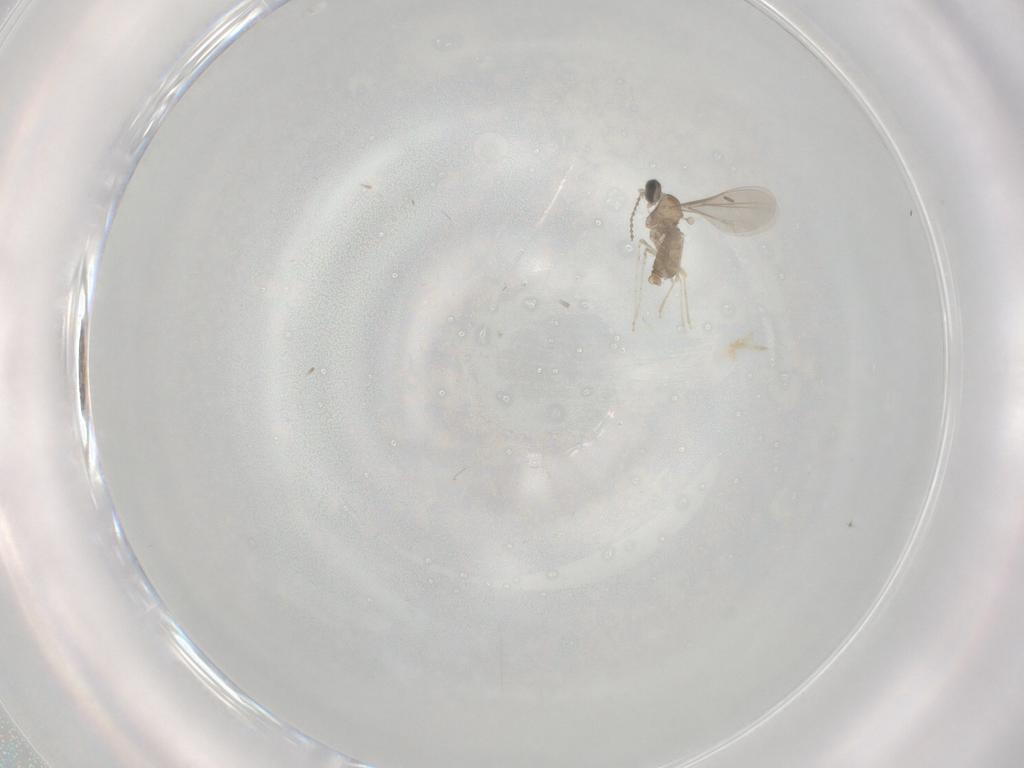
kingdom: Animalia
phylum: Arthropoda
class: Insecta
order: Diptera
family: Cecidomyiidae
